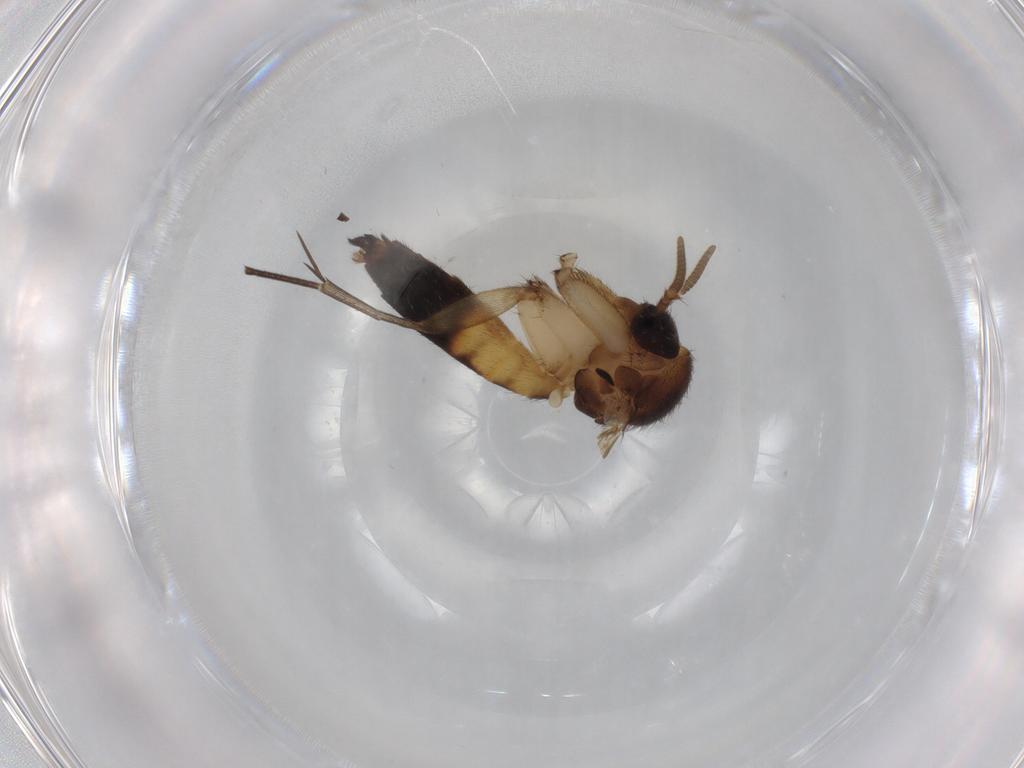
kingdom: Animalia
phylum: Arthropoda
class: Insecta
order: Diptera
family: Mycetophilidae
